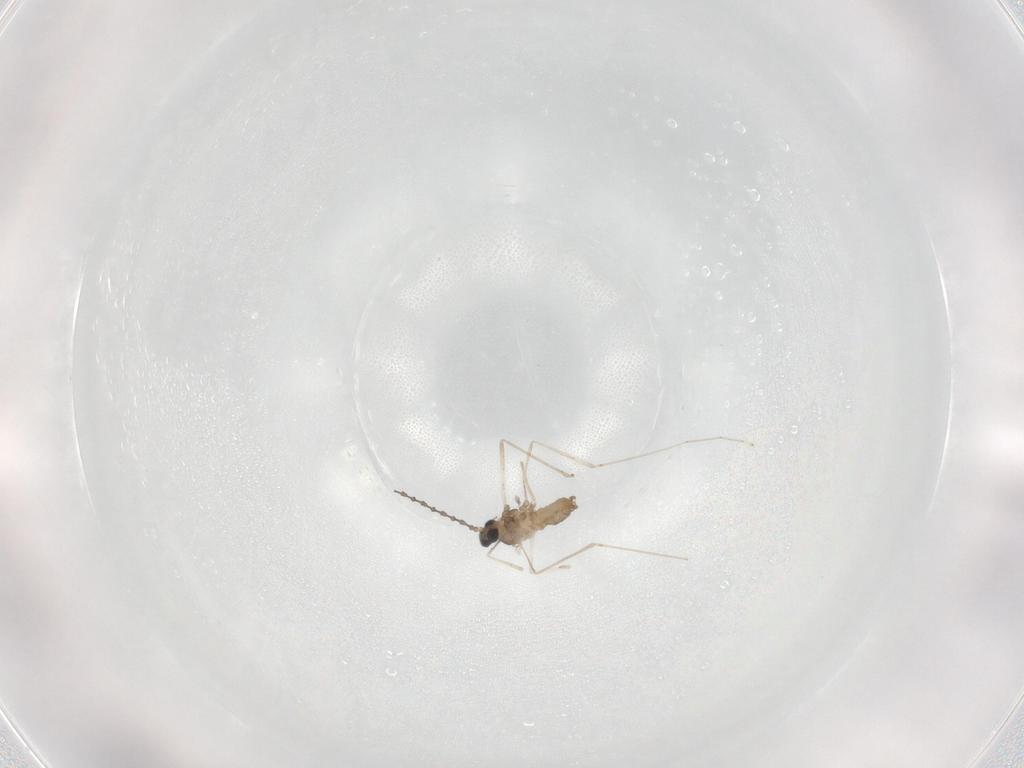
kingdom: Animalia
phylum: Arthropoda
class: Insecta
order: Diptera
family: Cecidomyiidae
